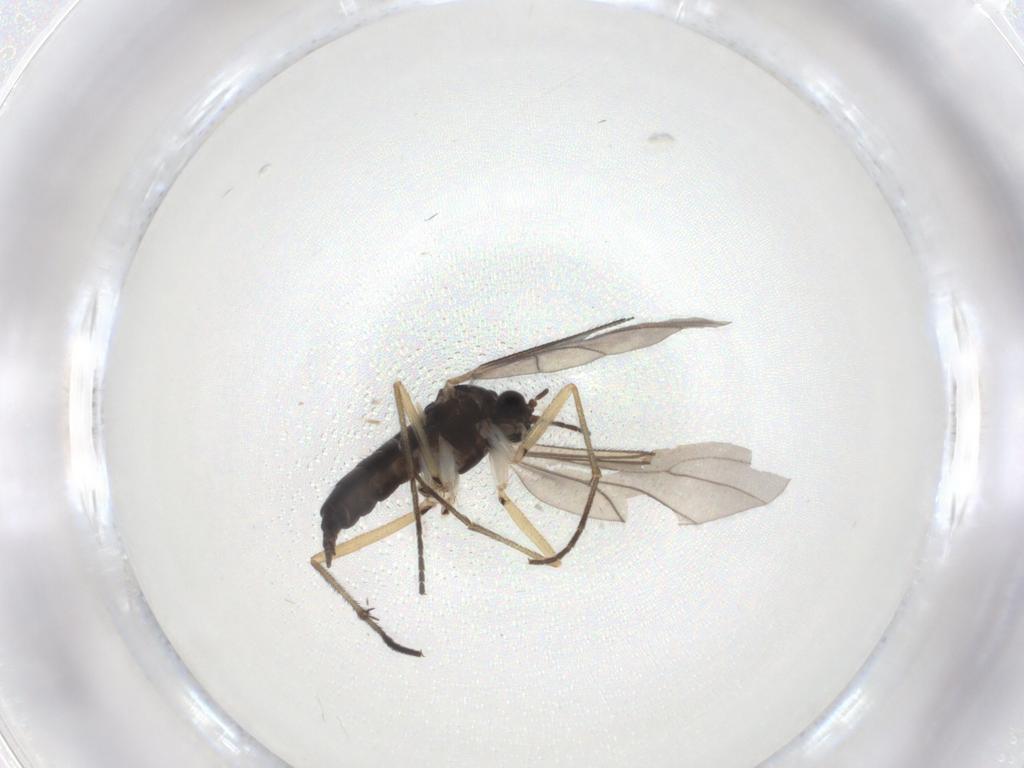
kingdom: Animalia
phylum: Arthropoda
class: Insecta
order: Diptera
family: Sciaridae
